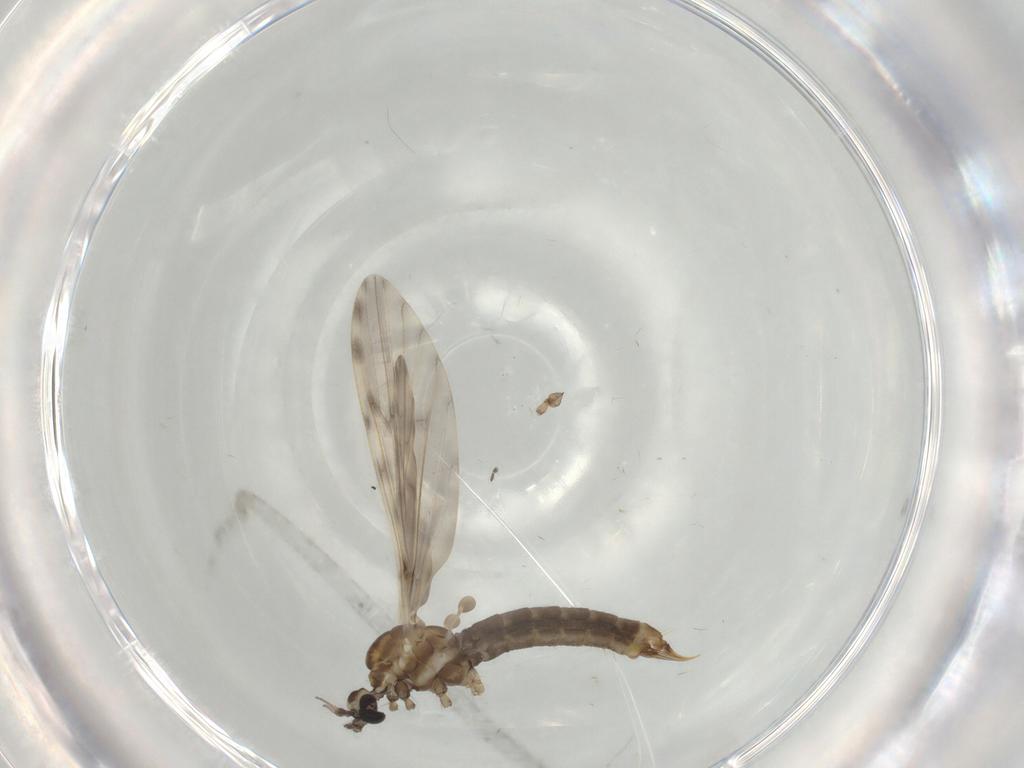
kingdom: Animalia
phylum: Arthropoda
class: Insecta
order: Diptera
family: Limoniidae
